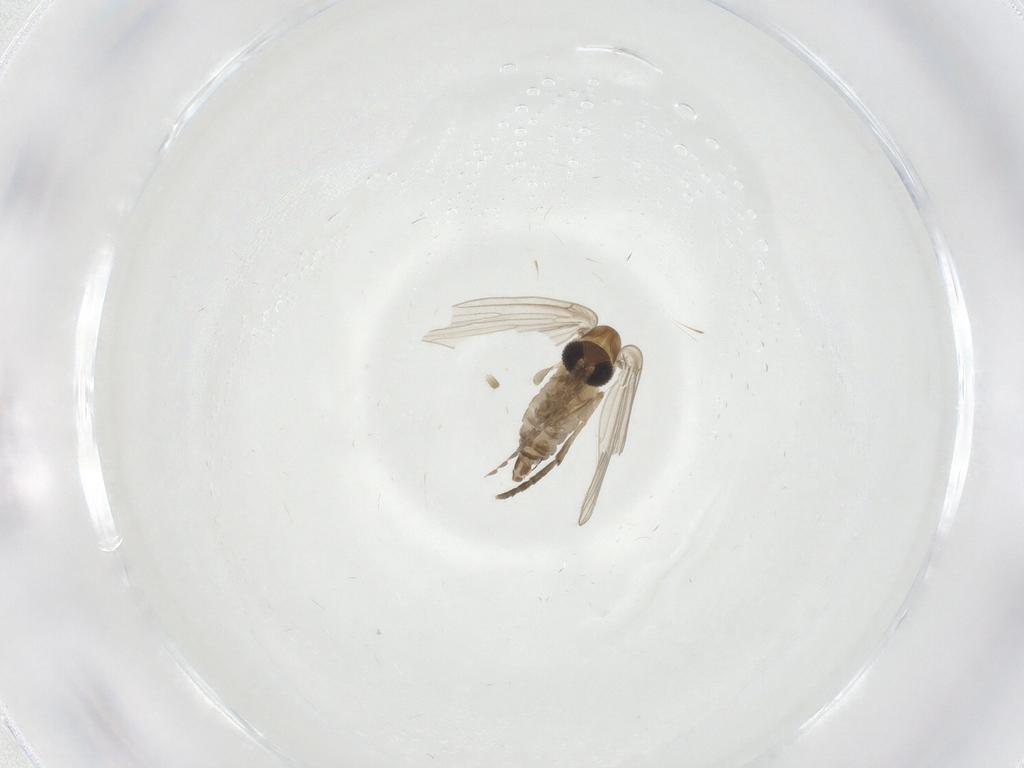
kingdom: Animalia
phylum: Arthropoda
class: Insecta
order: Diptera
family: Psychodidae
